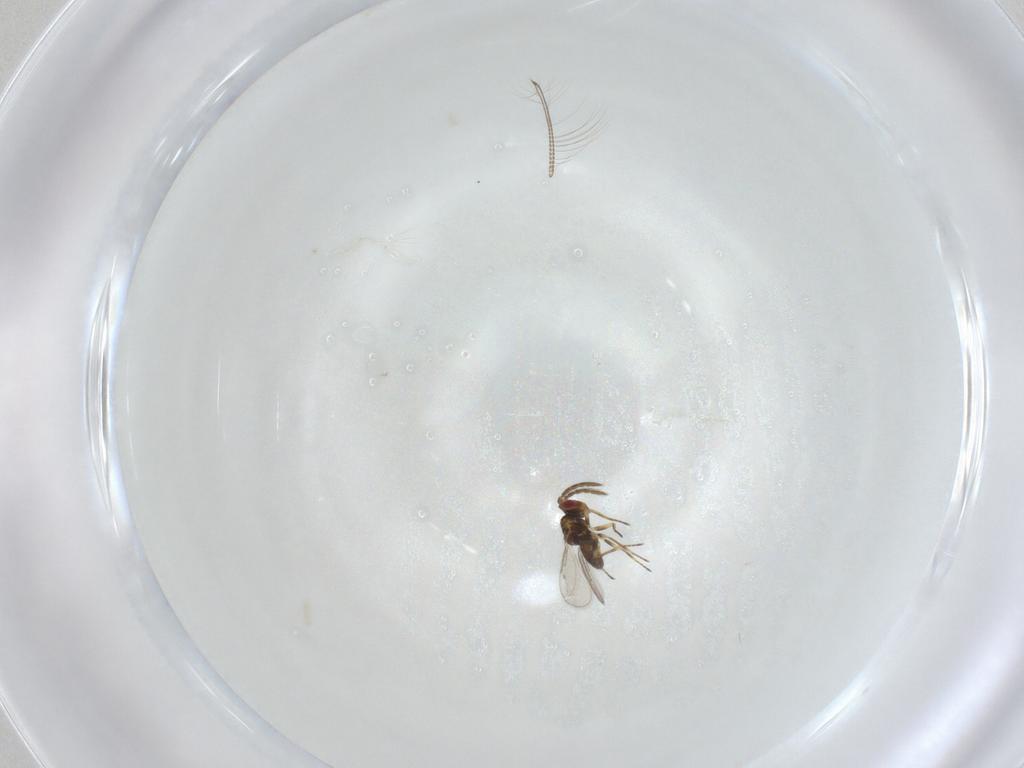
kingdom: Animalia
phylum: Arthropoda
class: Insecta
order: Hymenoptera
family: Eulophidae
